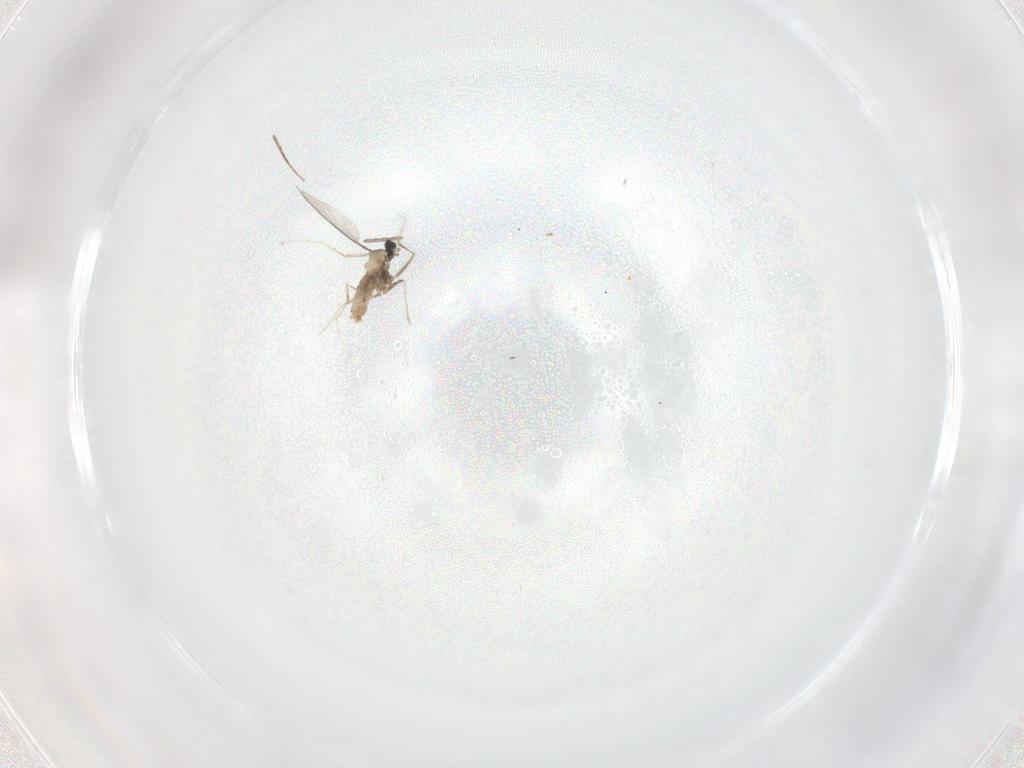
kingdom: Animalia
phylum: Arthropoda
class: Insecta
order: Diptera
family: Cecidomyiidae
